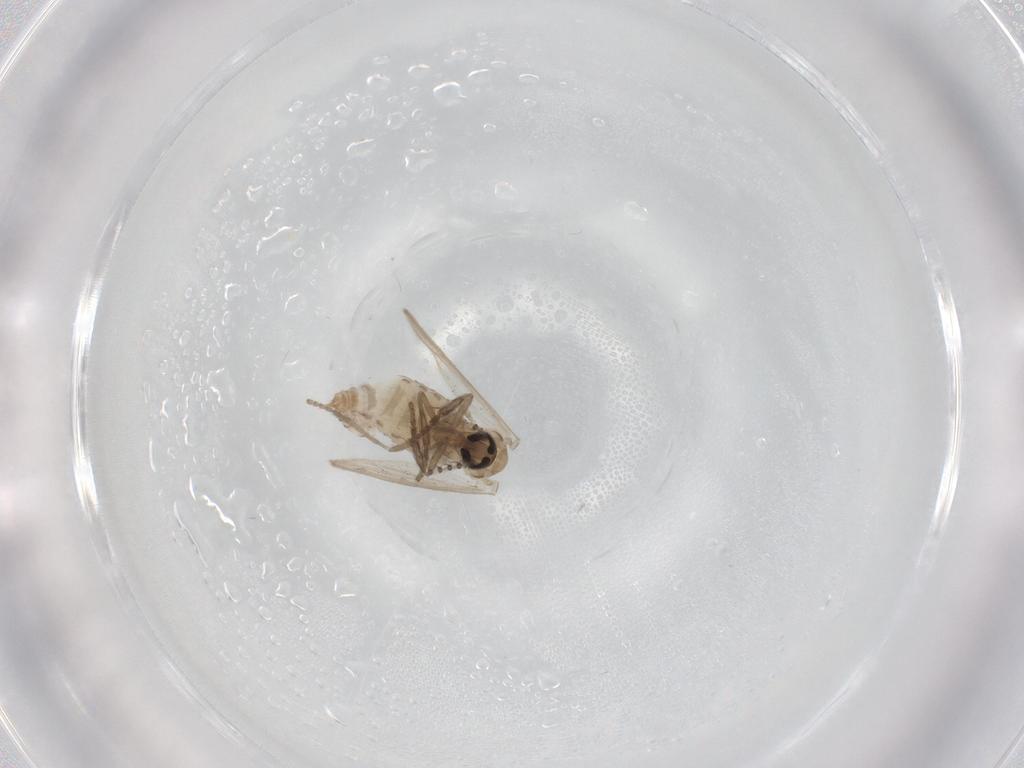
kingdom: Animalia
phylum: Arthropoda
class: Insecta
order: Diptera
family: Psychodidae
